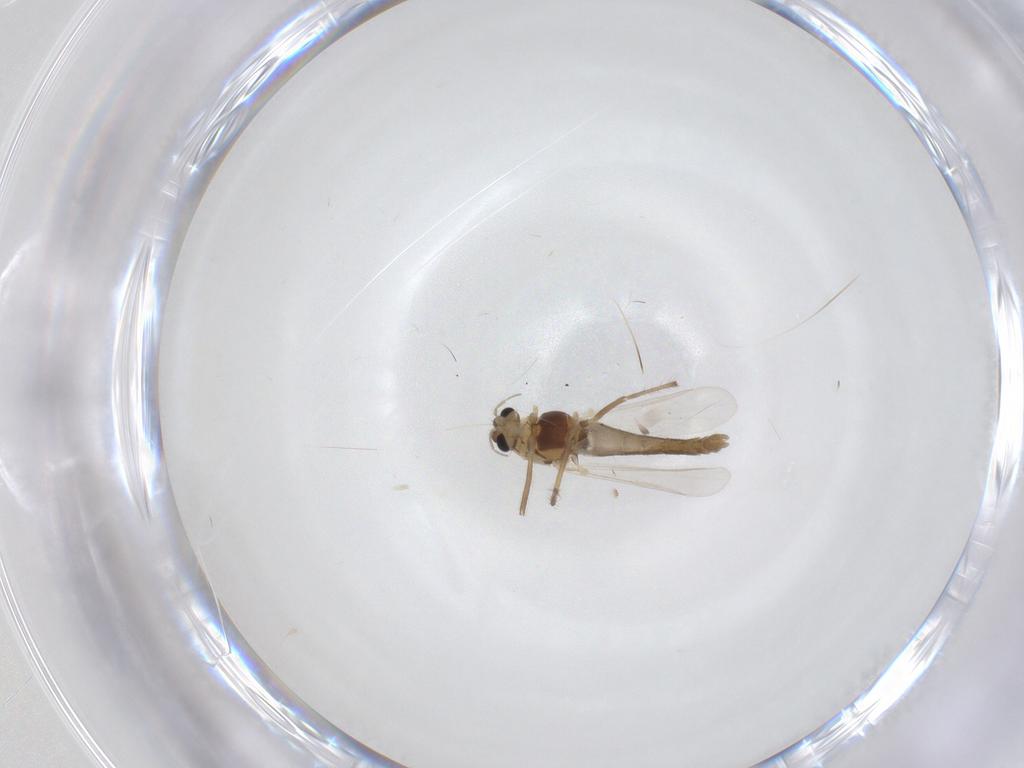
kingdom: Animalia
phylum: Arthropoda
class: Insecta
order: Diptera
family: Chironomidae
